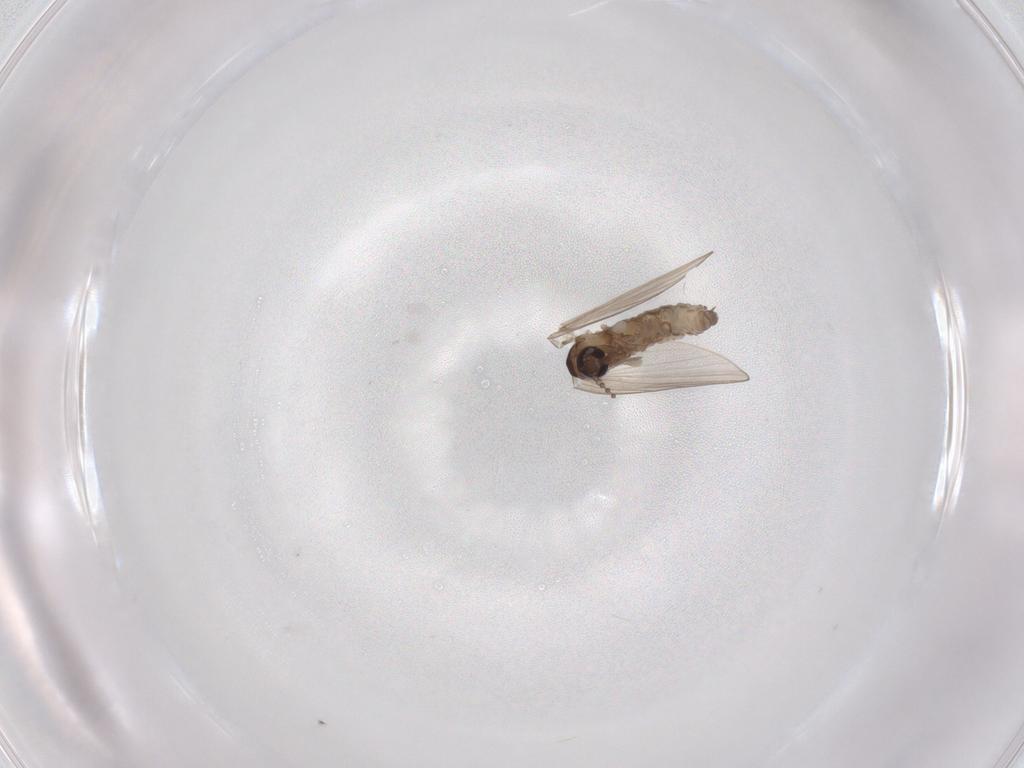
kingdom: Animalia
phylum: Arthropoda
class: Insecta
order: Diptera
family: Psychodidae
